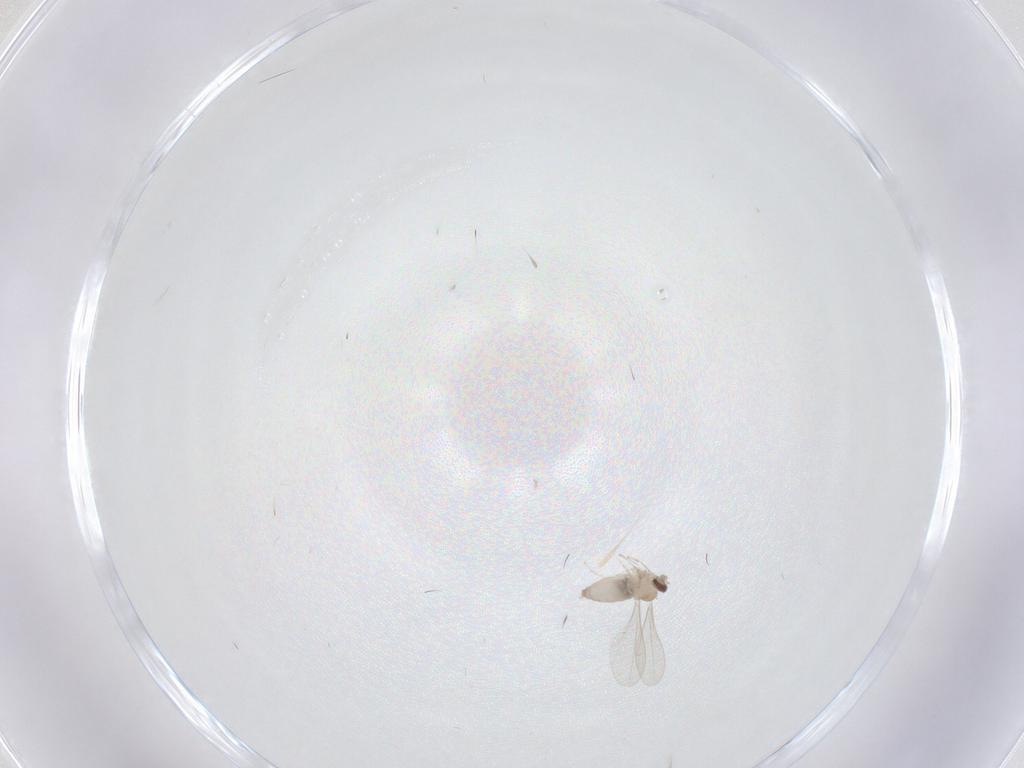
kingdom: Animalia
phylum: Arthropoda
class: Insecta
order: Diptera
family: Cecidomyiidae
